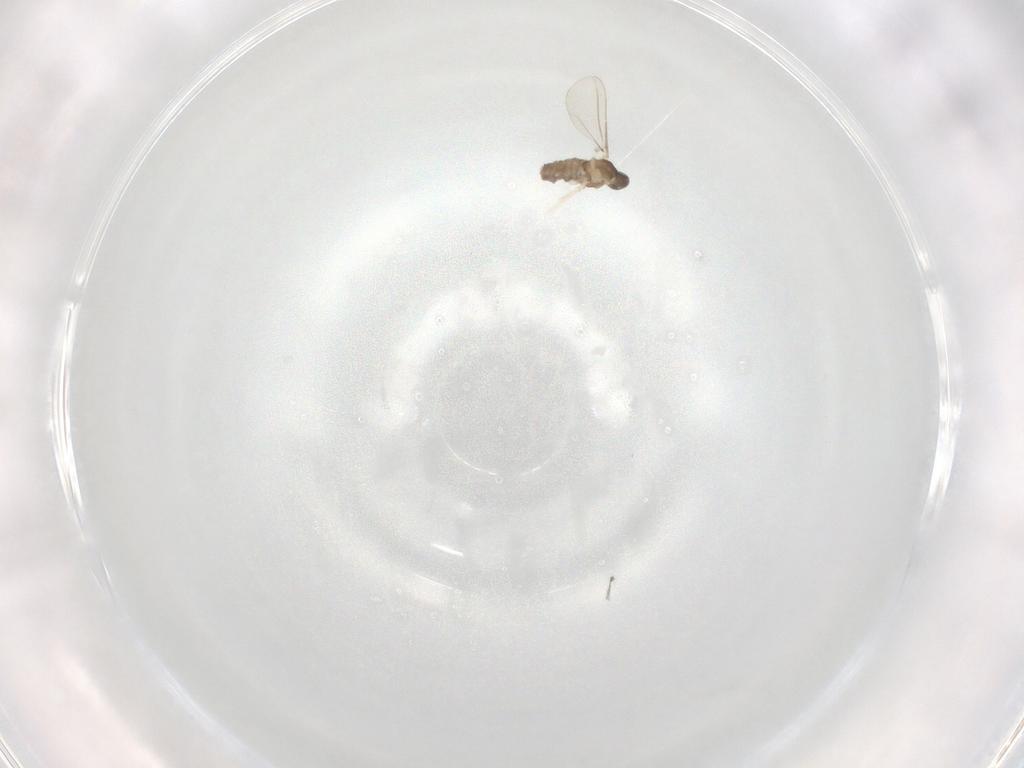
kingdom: Animalia
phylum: Arthropoda
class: Insecta
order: Diptera
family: Cecidomyiidae
